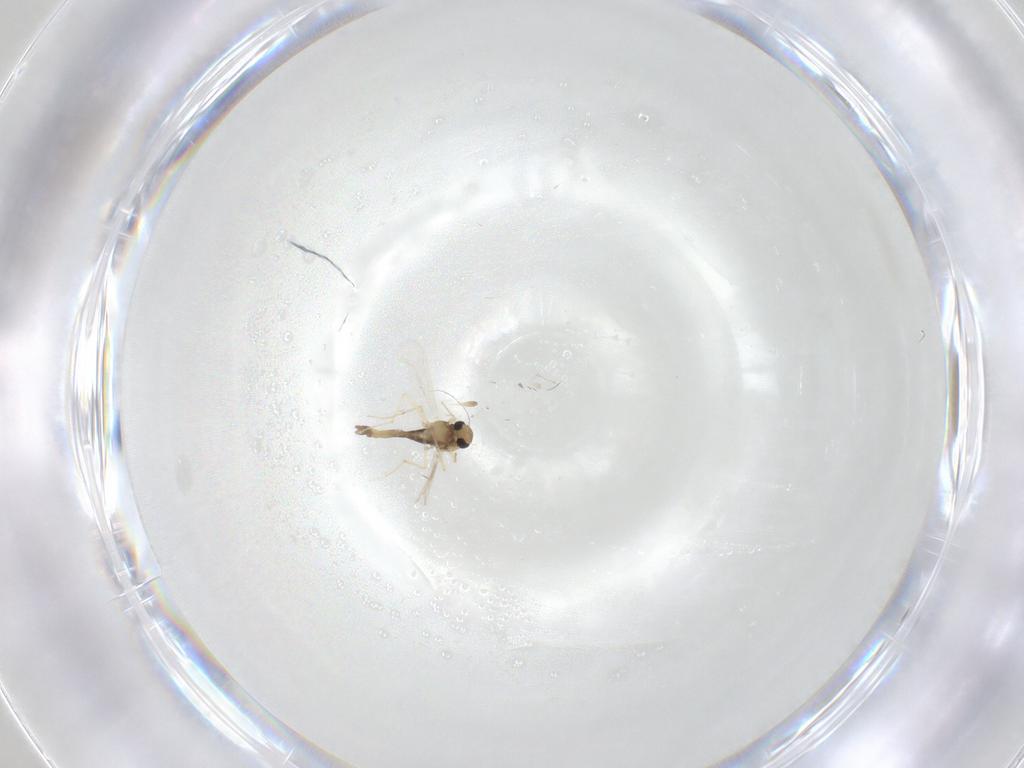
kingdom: Animalia
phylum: Arthropoda
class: Insecta
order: Diptera
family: Chironomidae
